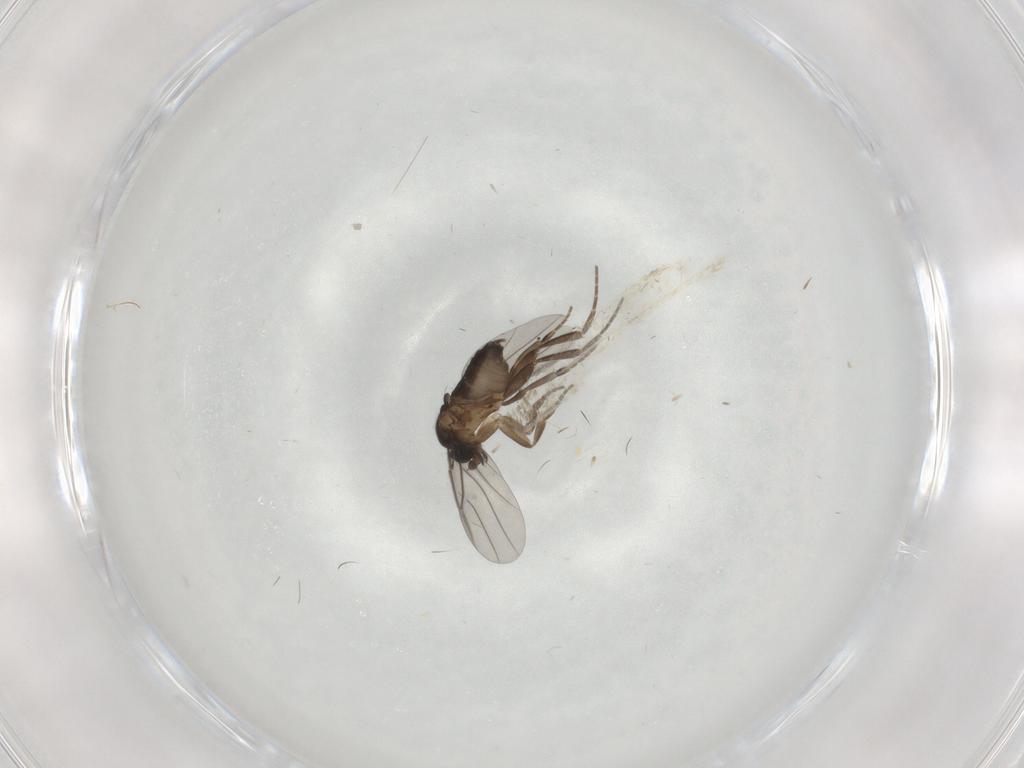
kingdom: Animalia
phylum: Arthropoda
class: Insecta
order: Diptera
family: Phoridae
